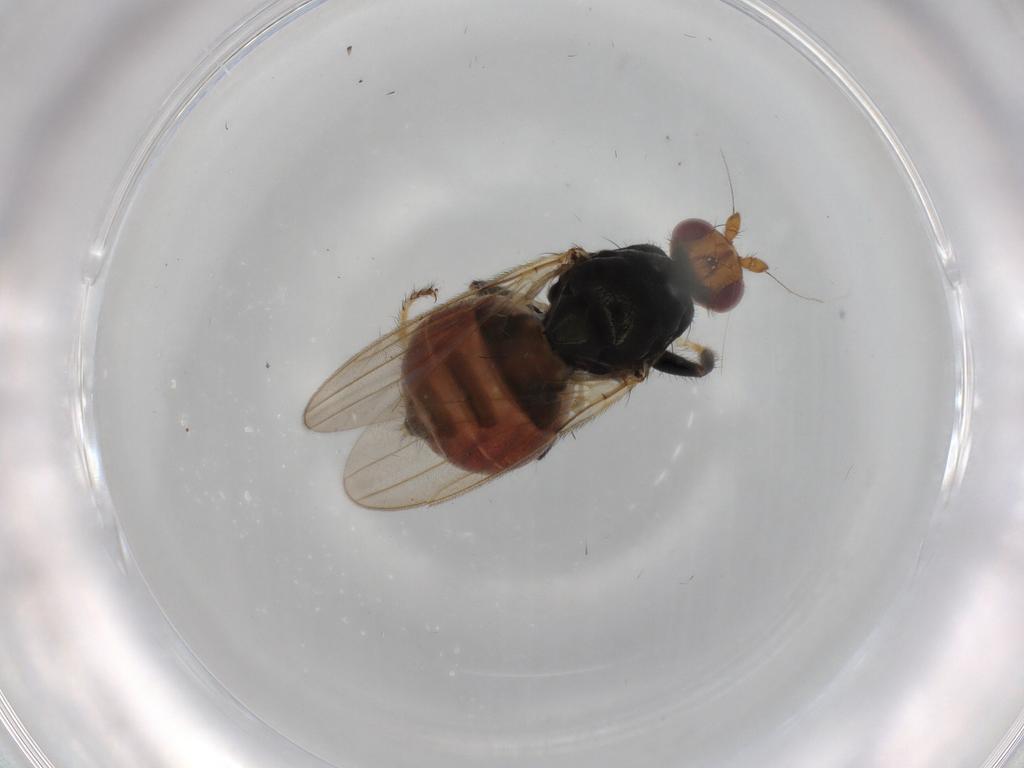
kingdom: Animalia
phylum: Arthropoda
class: Insecta
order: Diptera
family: Sphaeroceridae
